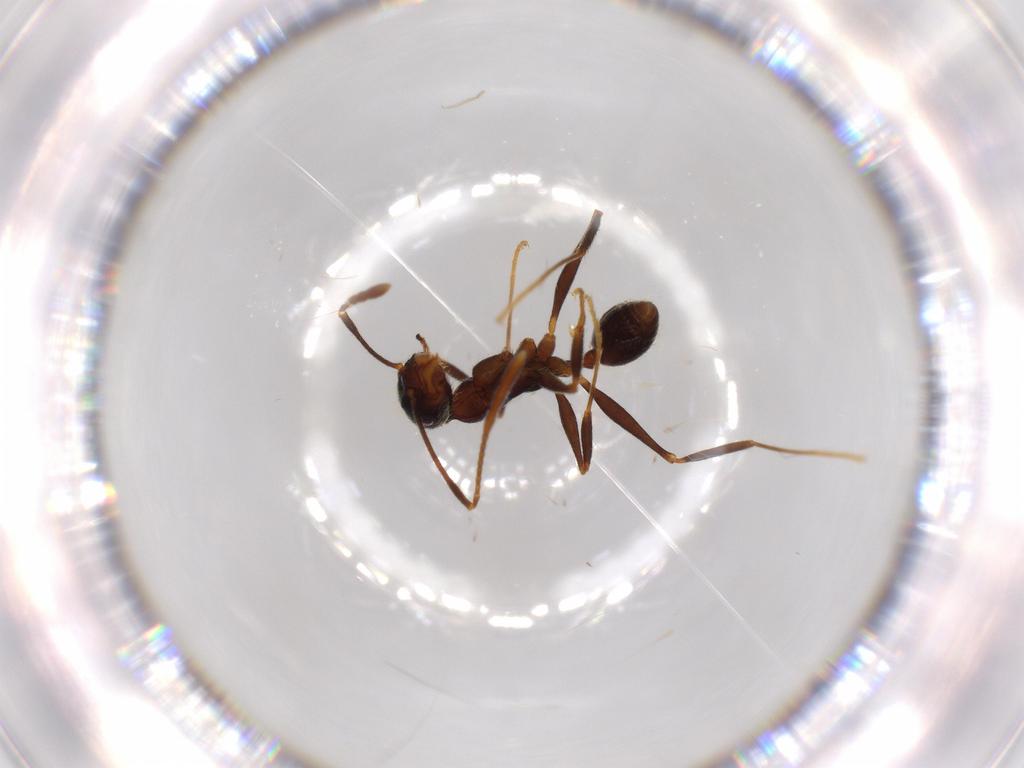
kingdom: Animalia
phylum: Arthropoda
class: Insecta
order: Hymenoptera
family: Formicidae
